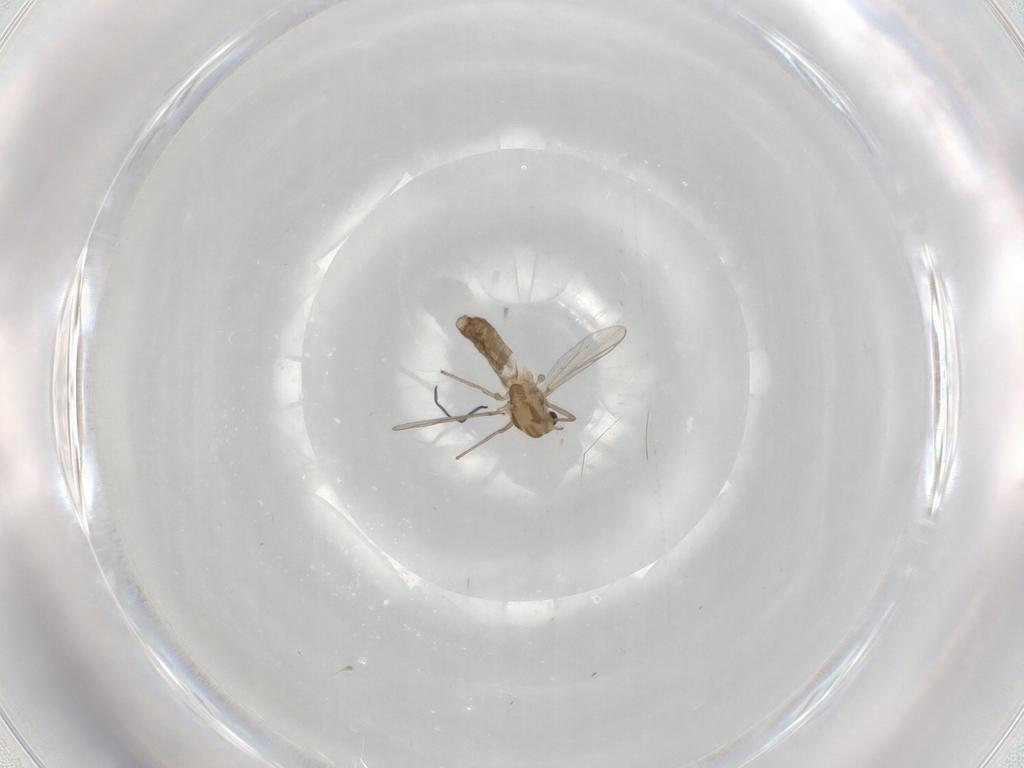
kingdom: Animalia
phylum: Arthropoda
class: Insecta
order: Diptera
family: Chironomidae
